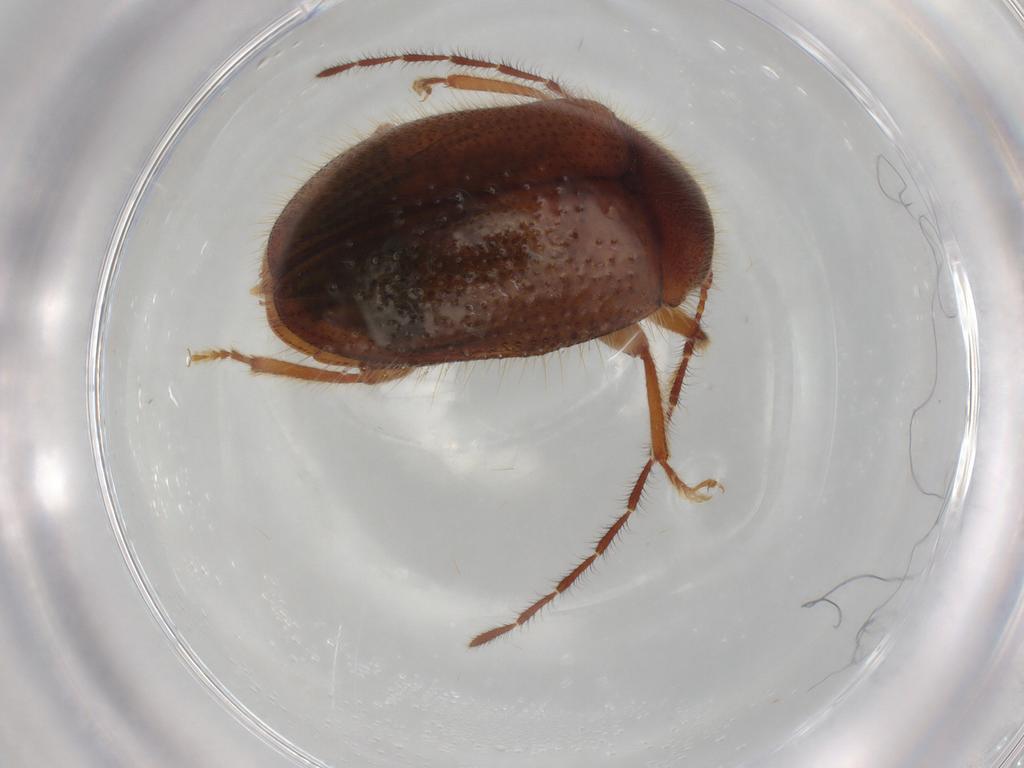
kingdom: Animalia
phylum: Arthropoda
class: Insecta
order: Coleoptera
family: Artematopodidae
